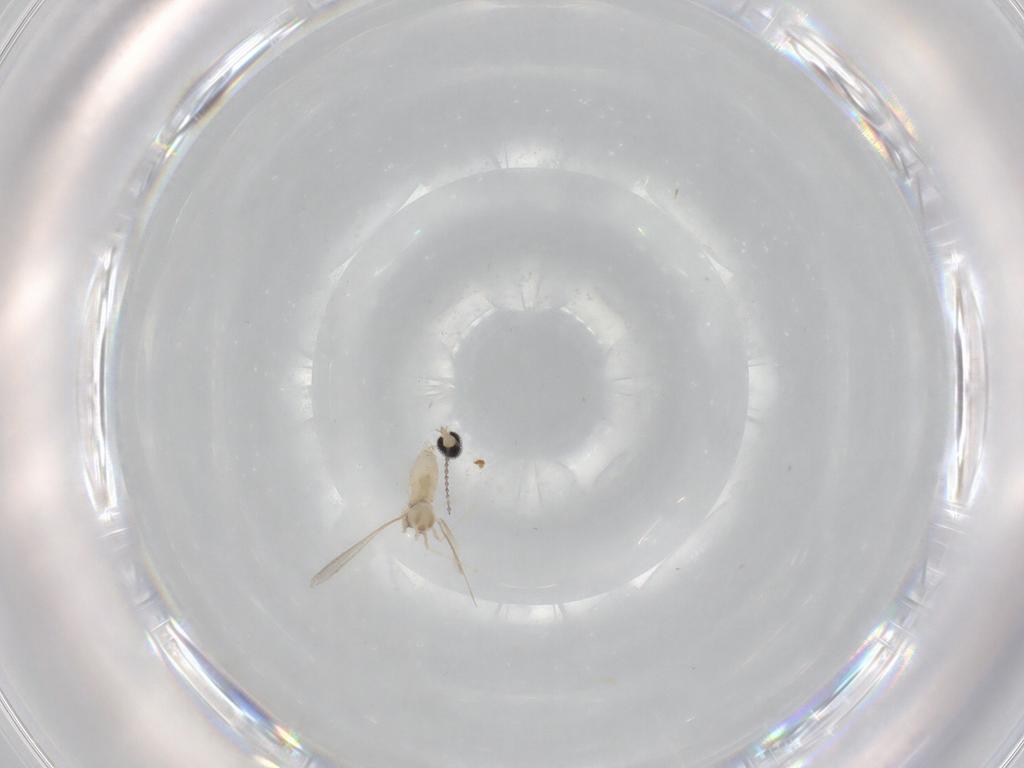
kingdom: Animalia
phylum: Arthropoda
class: Insecta
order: Diptera
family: Cecidomyiidae
